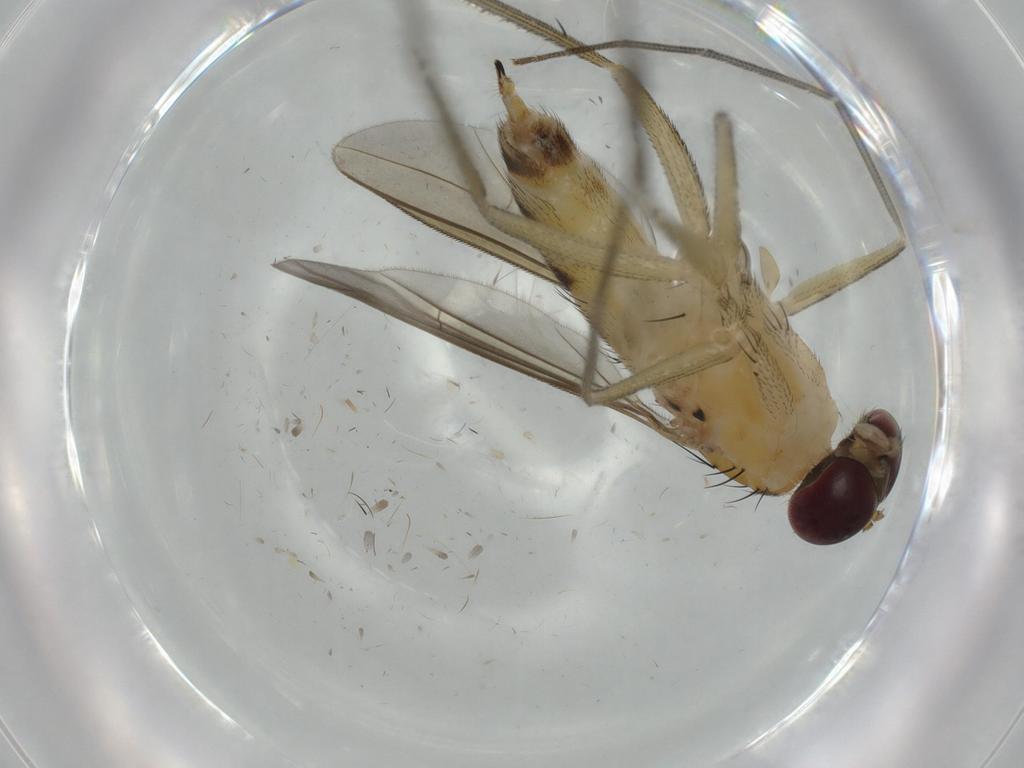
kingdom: Animalia
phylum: Arthropoda
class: Insecta
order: Diptera
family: Dolichopodidae
